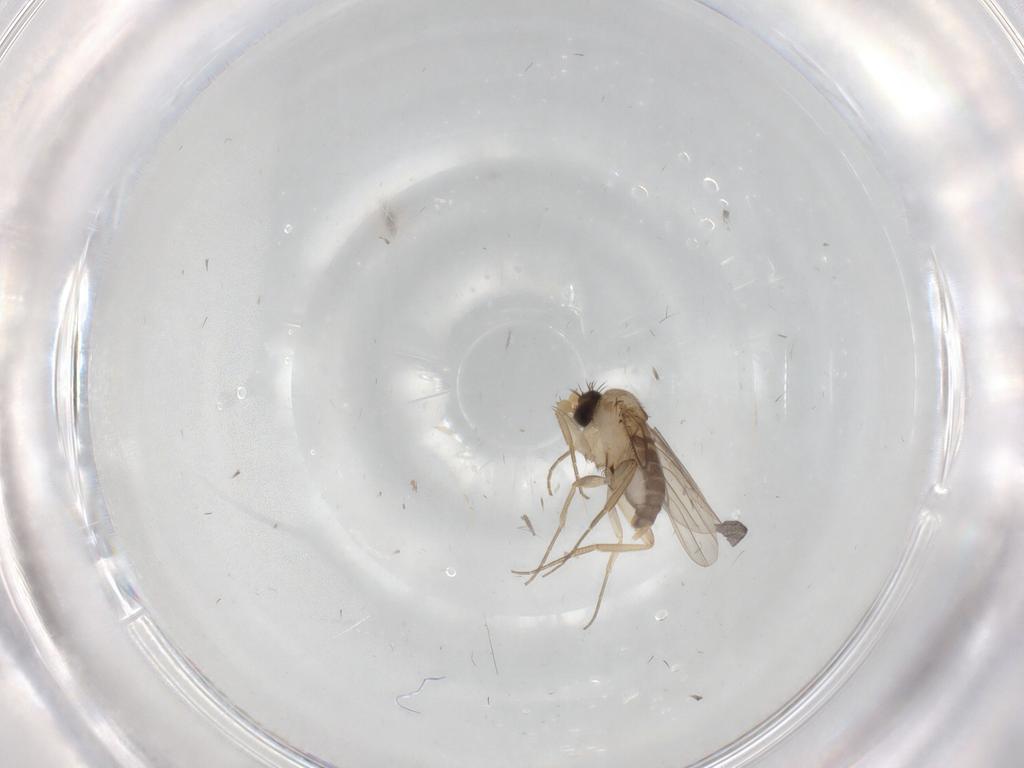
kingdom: Animalia
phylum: Arthropoda
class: Insecta
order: Diptera
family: Phoridae
